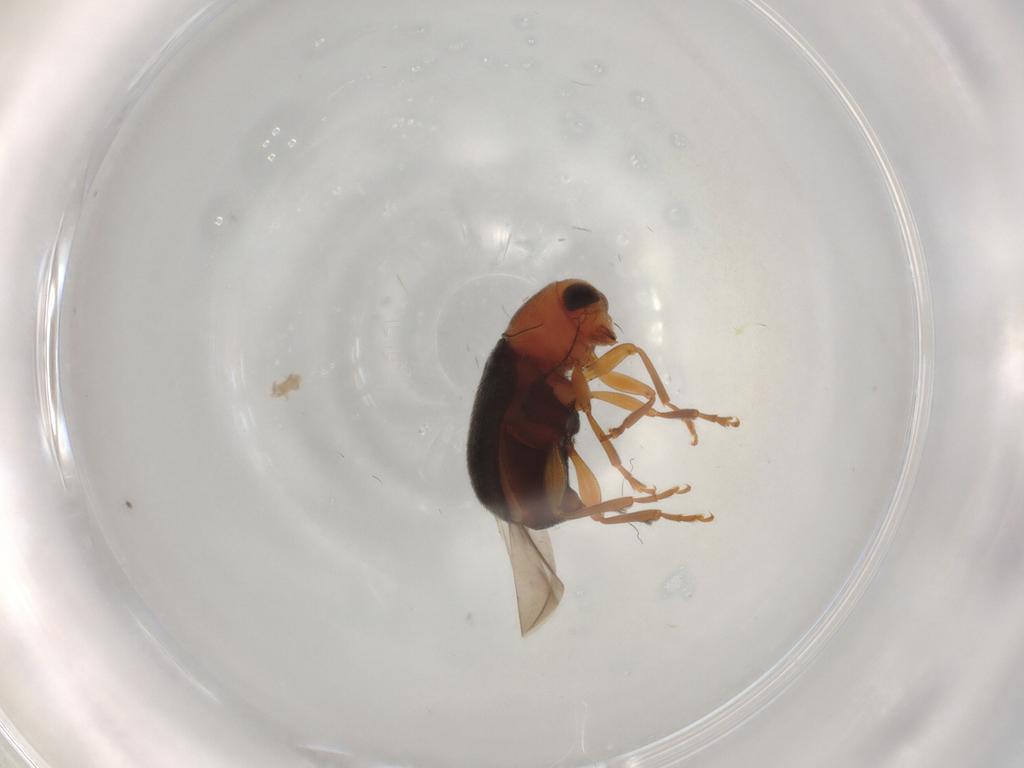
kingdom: Animalia
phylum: Arthropoda
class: Insecta
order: Coleoptera
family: Anthribidae
